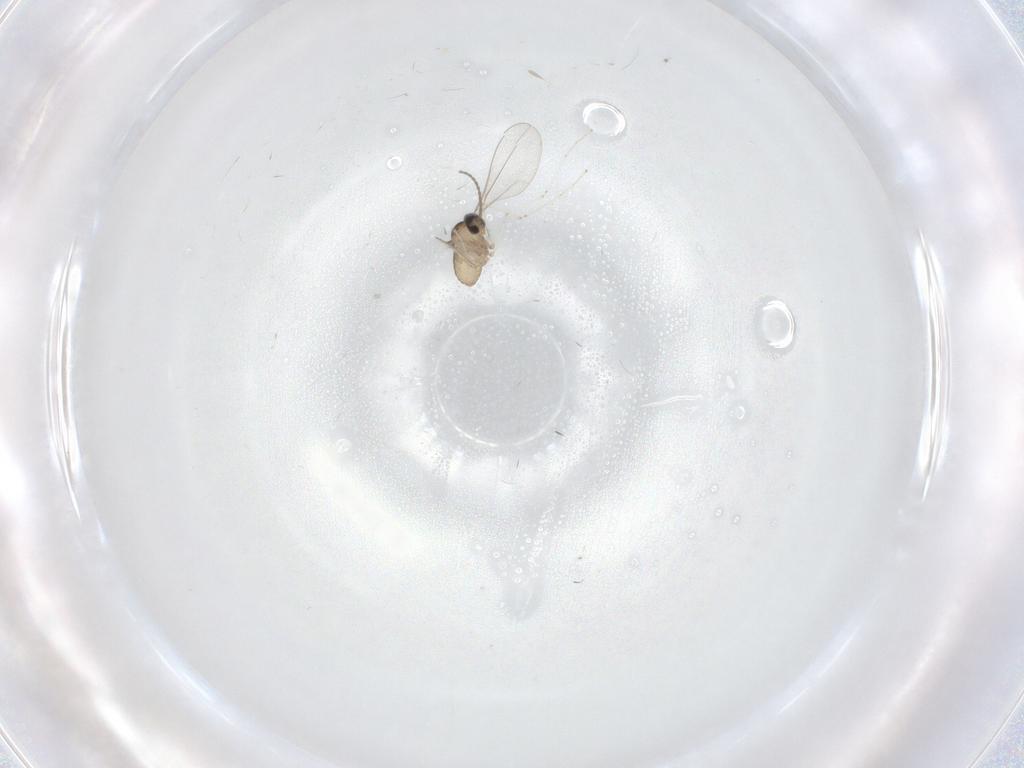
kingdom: Animalia
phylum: Arthropoda
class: Insecta
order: Diptera
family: Cecidomyiidae
